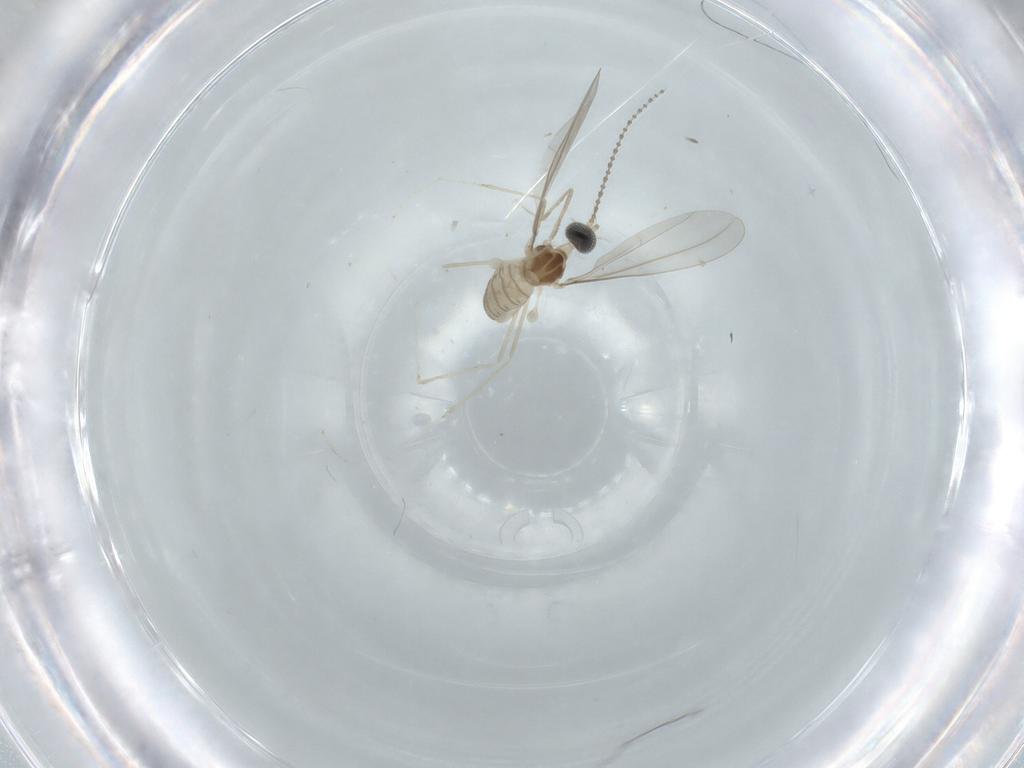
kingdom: Animalia
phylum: Arthropoda
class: Insecta
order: Diptera
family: Cecidomyiidae
